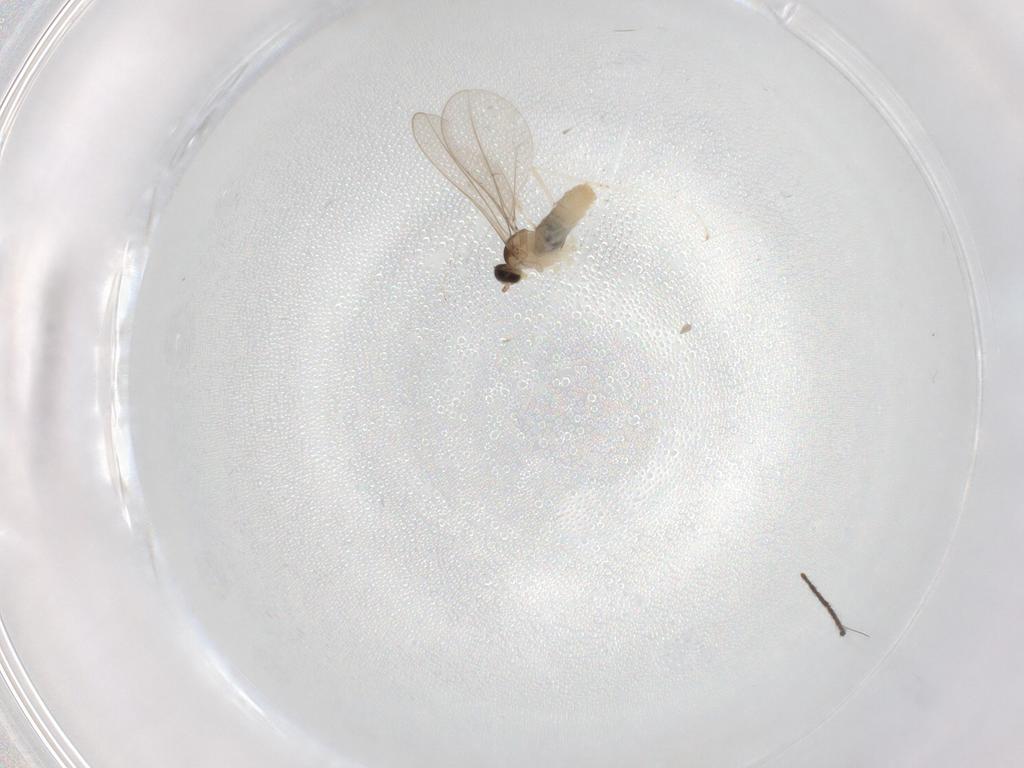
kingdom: Animalia
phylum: Arthropoda
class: Insecta
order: Diptera
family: Limoniidae
